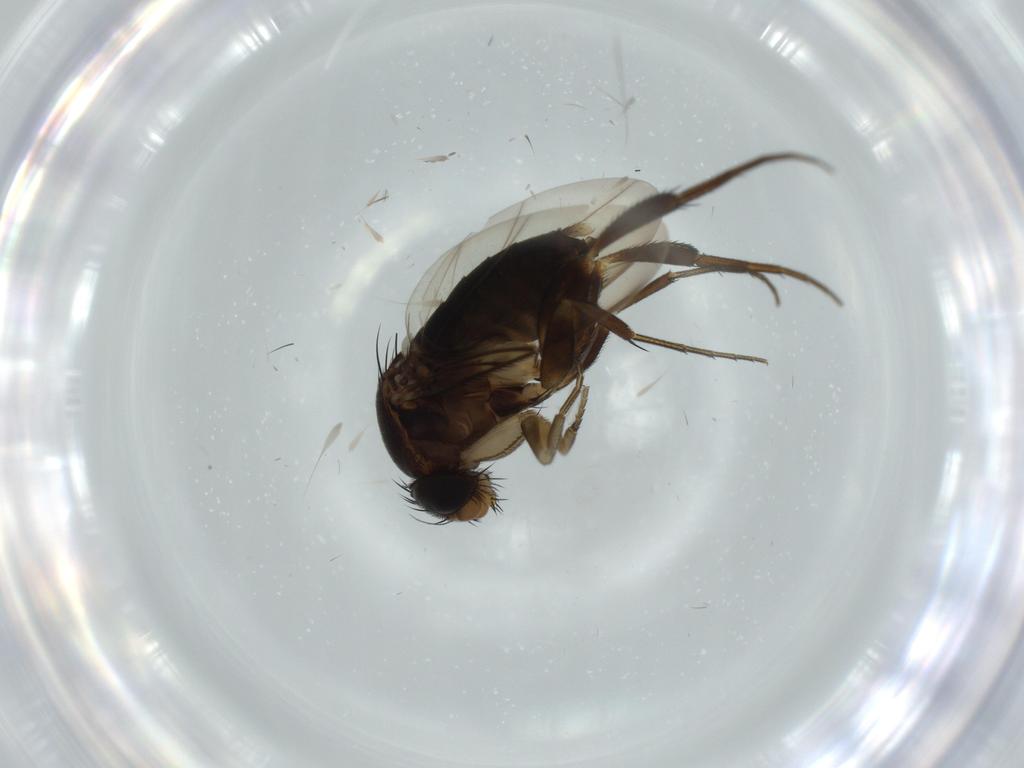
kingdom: Animalia
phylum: Arthropoda
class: Insecta
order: Diptera
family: Phoridae
